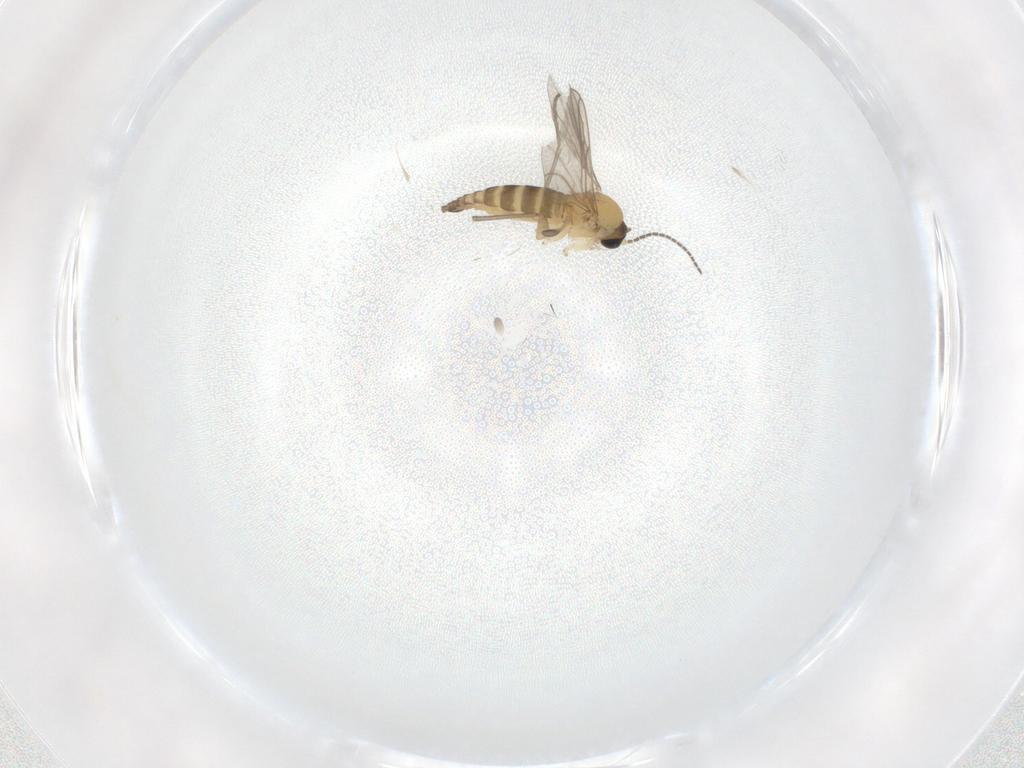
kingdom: Animalia
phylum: Arthropoda
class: Insecta
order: Diptera
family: Sciaridae
